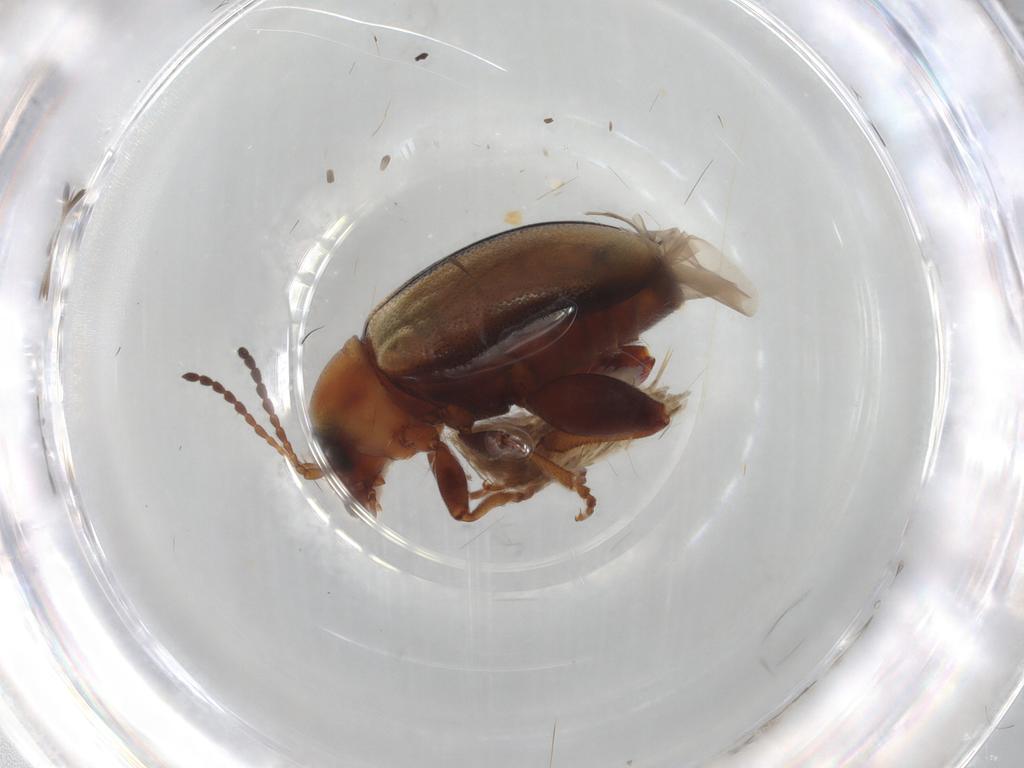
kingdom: Animalia
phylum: Arthropoda
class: Insecta
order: Coleoptera
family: Chrysomelidae
